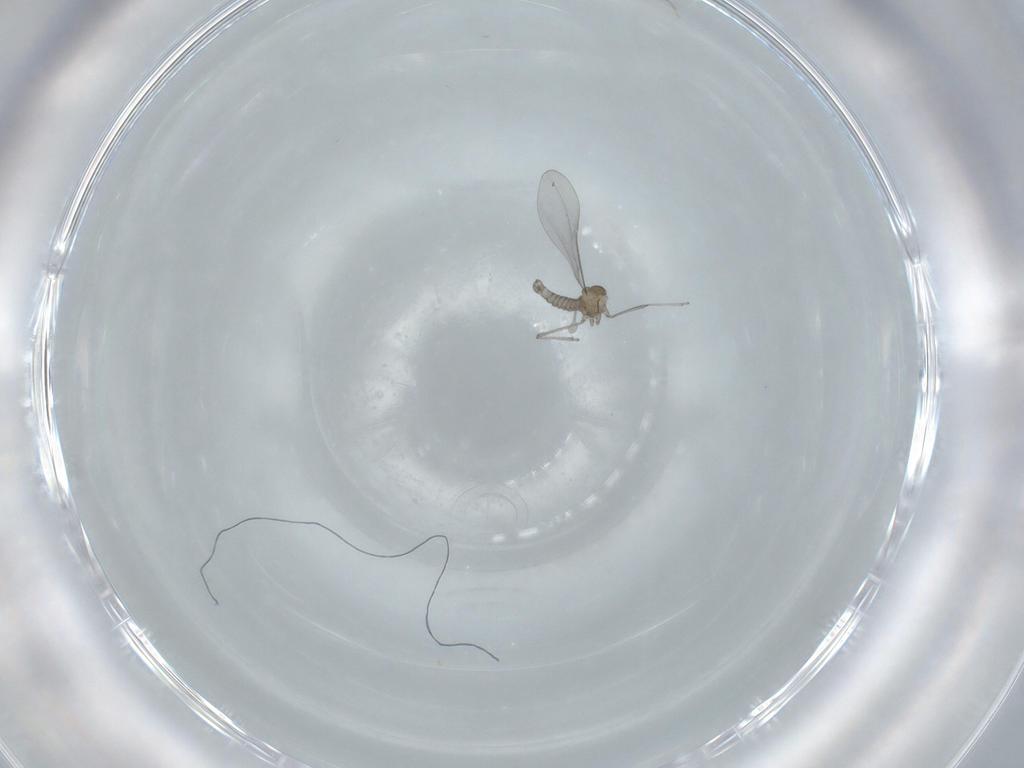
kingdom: Animalia
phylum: Arthropoda
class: Insecta
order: Diptera
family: Cecidomyiidae
